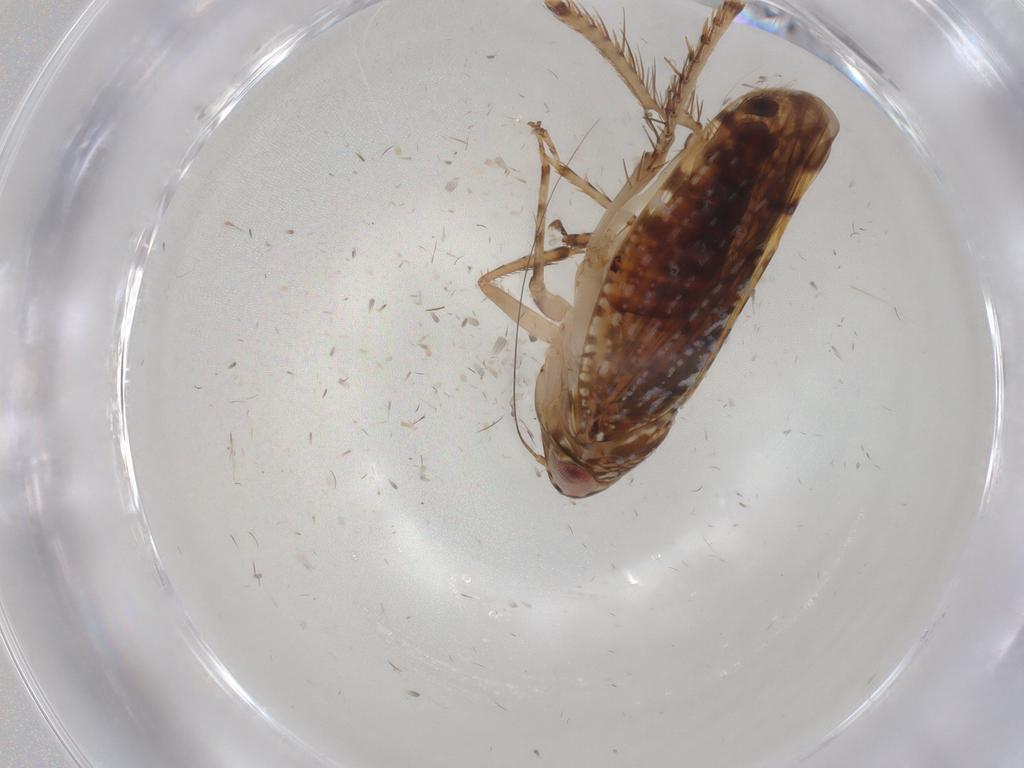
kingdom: Animalia
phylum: Arthropoda
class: Insecta
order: Hemiptera
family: Cicadellidae
